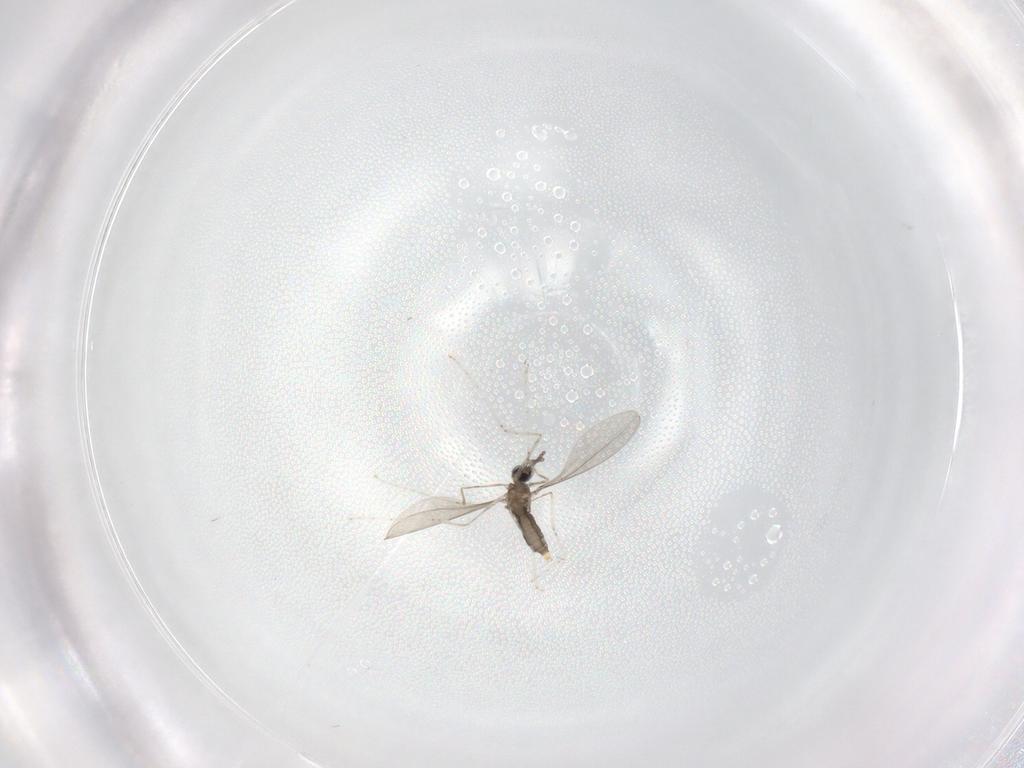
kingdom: Animalia
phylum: Arthropoda
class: Insecta
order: Diptera
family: Cecidomyiidae
